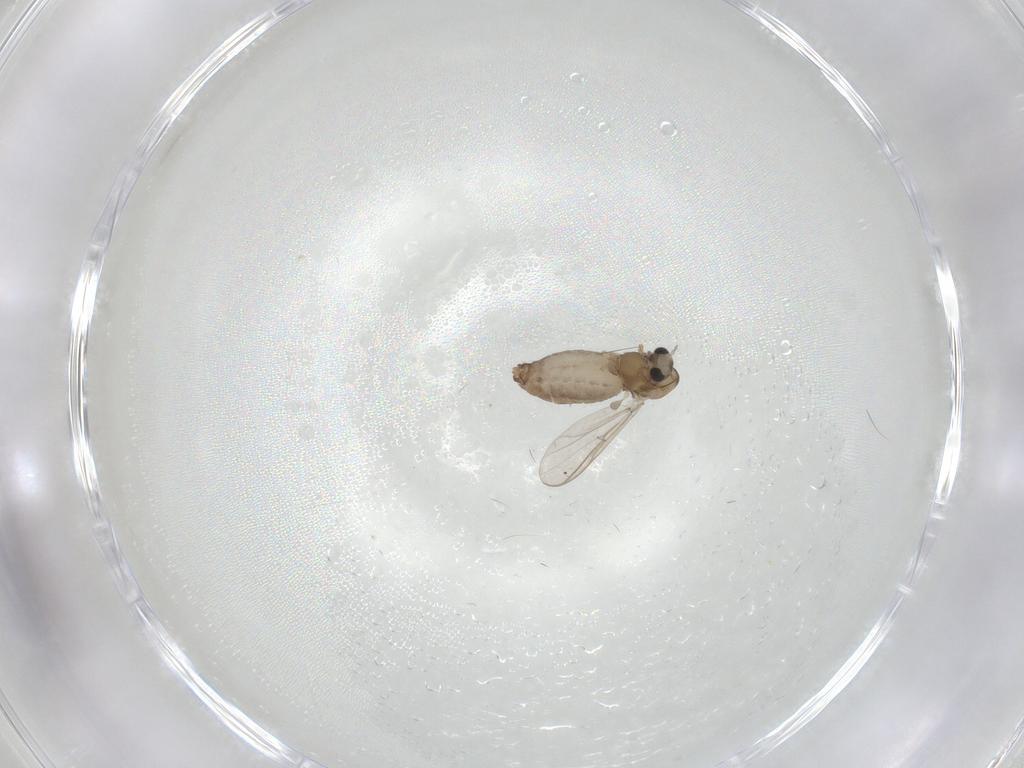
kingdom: Animalia
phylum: Arthropoda
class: Insecta
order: Diptera
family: Chironomidae
